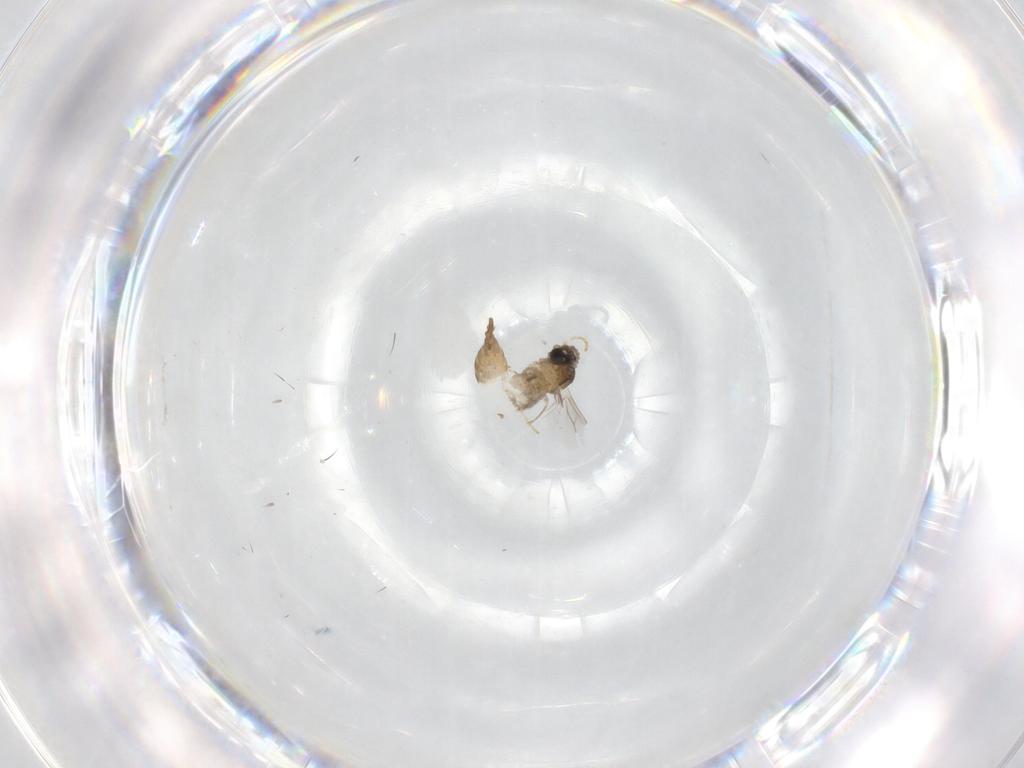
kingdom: Animalia
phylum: Arthropoda
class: Insecta
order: Diptera
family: Cecidomyiidae
